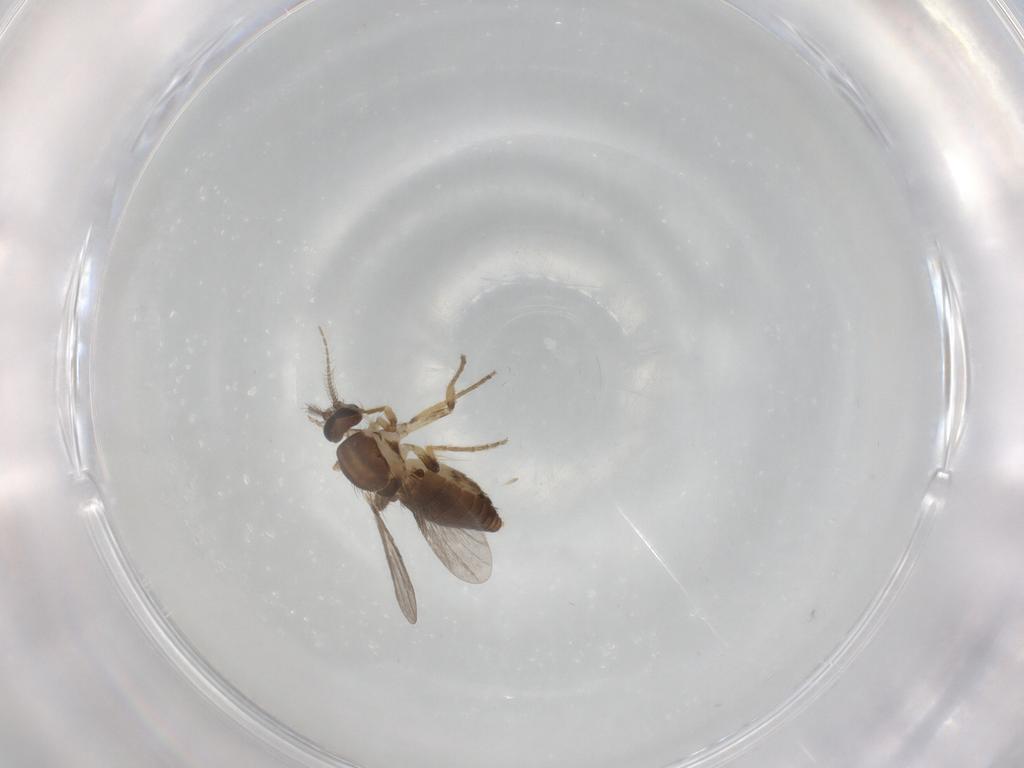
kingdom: Animalia
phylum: Arthropoda
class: Insecta
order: Diptera
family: Ceratopogonidae
